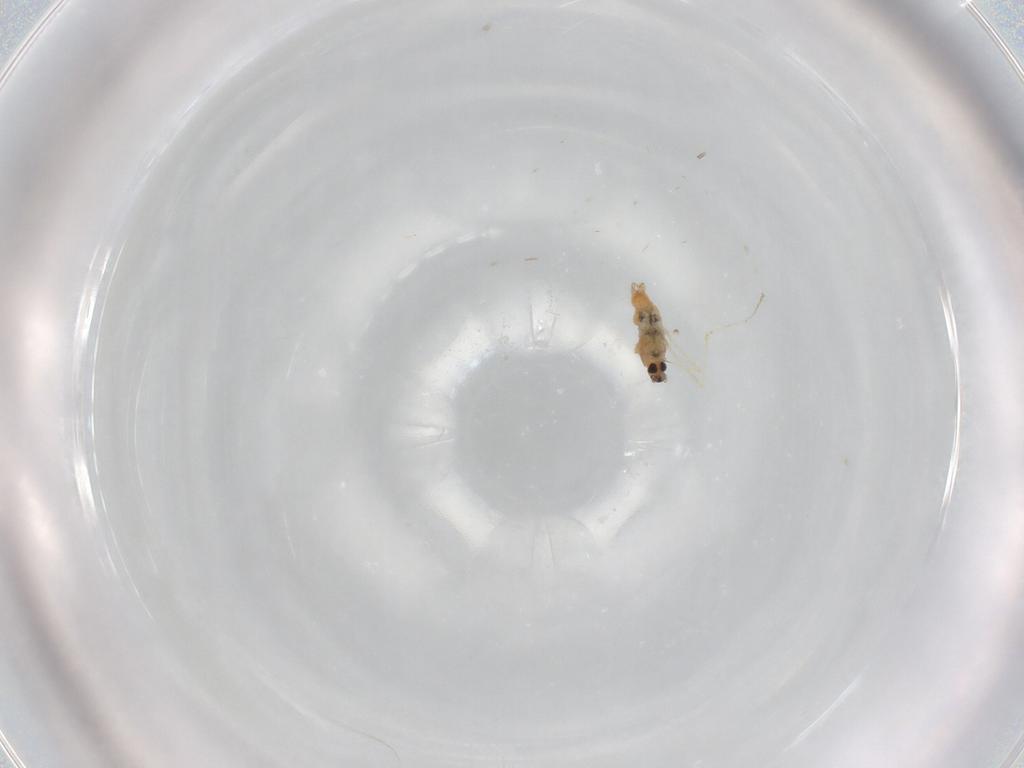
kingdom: Animalia
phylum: Arthropoda
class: Insecta
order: Diptera
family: Cecidomyiidae
